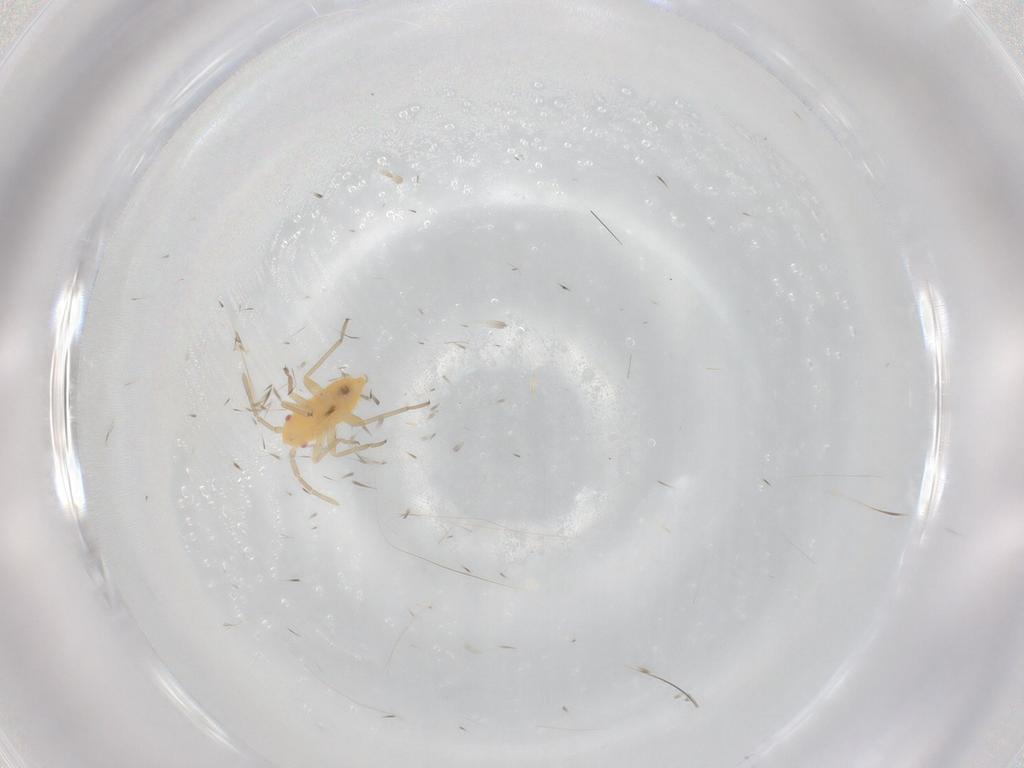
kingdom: Animalia
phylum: Arthropoda
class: Insecta
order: Hemiptera
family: Miridae
